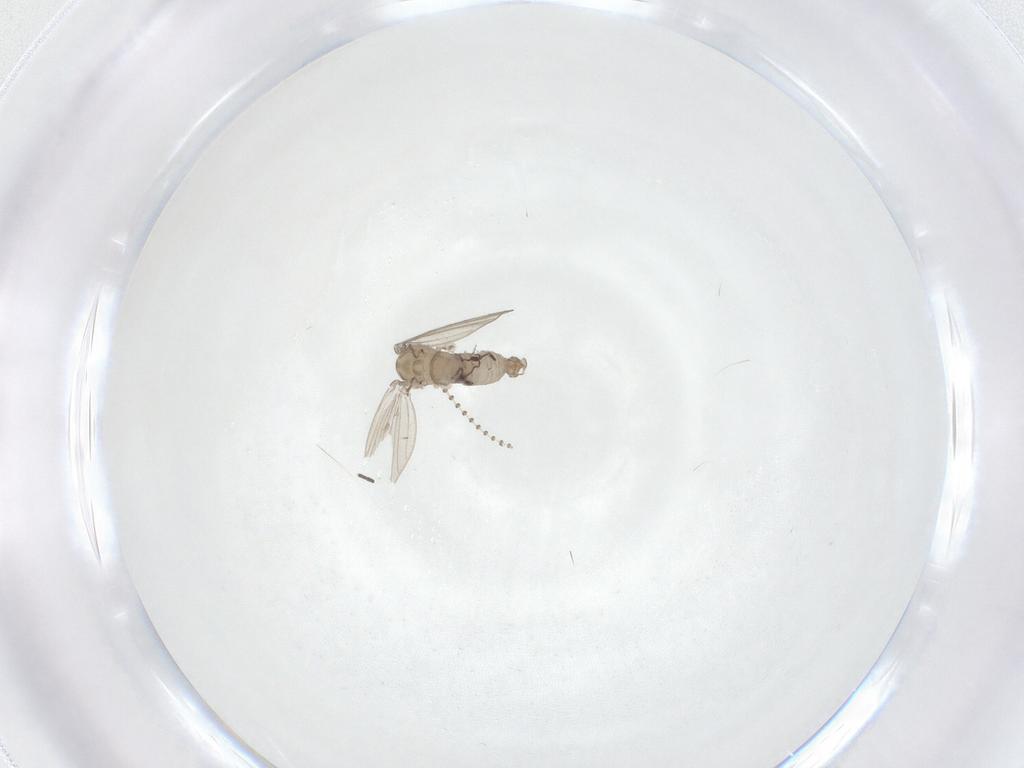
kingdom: Animalia
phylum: Arthropoda
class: Insecta
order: Diptera
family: Psychodidae
